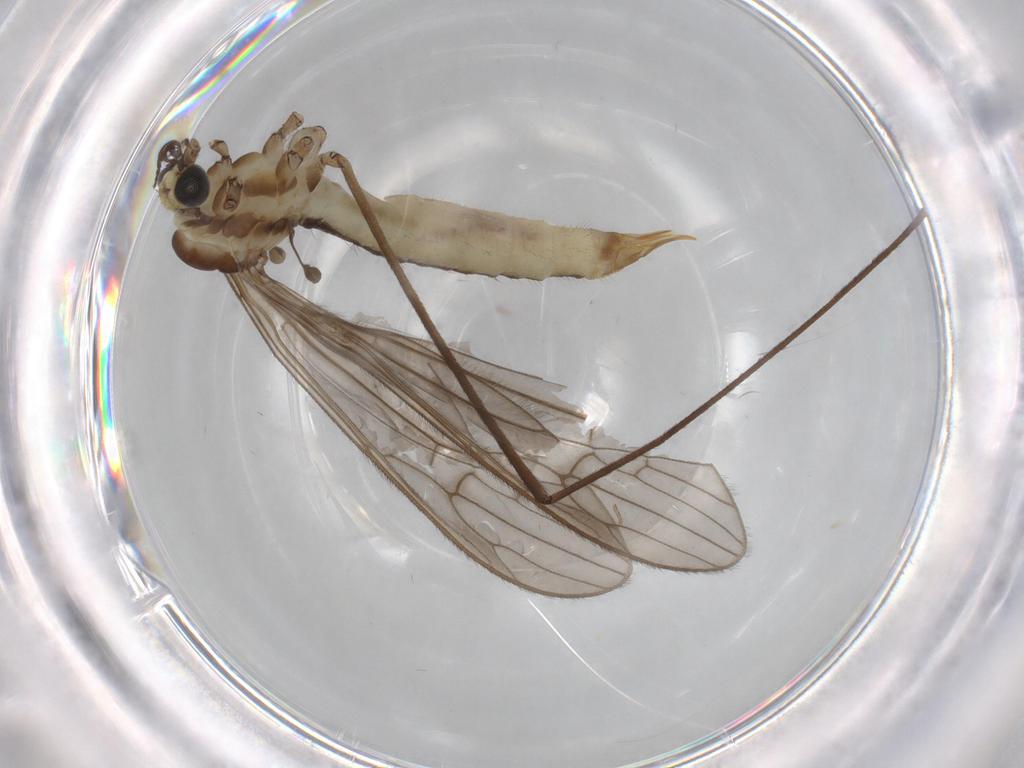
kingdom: Animalia
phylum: Arthropoda
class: Insecta
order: Diptera
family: Limoniidae
